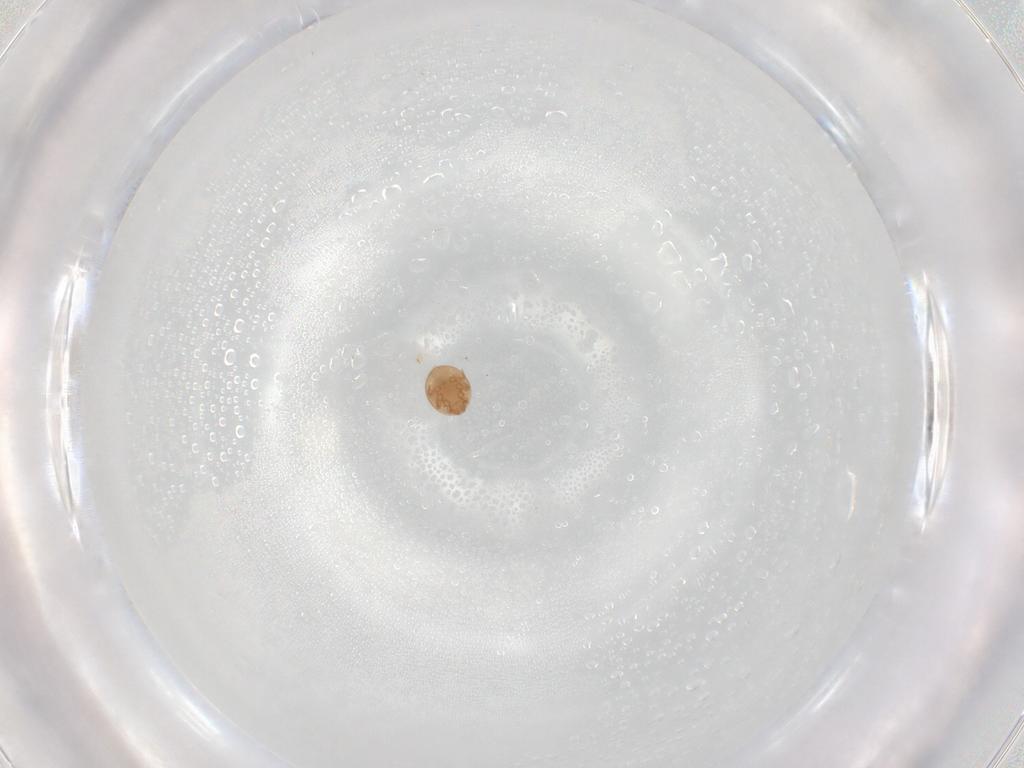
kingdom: Animalia
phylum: Arthropoda
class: Arachnida
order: Mesostigmata
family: Trematuridae
